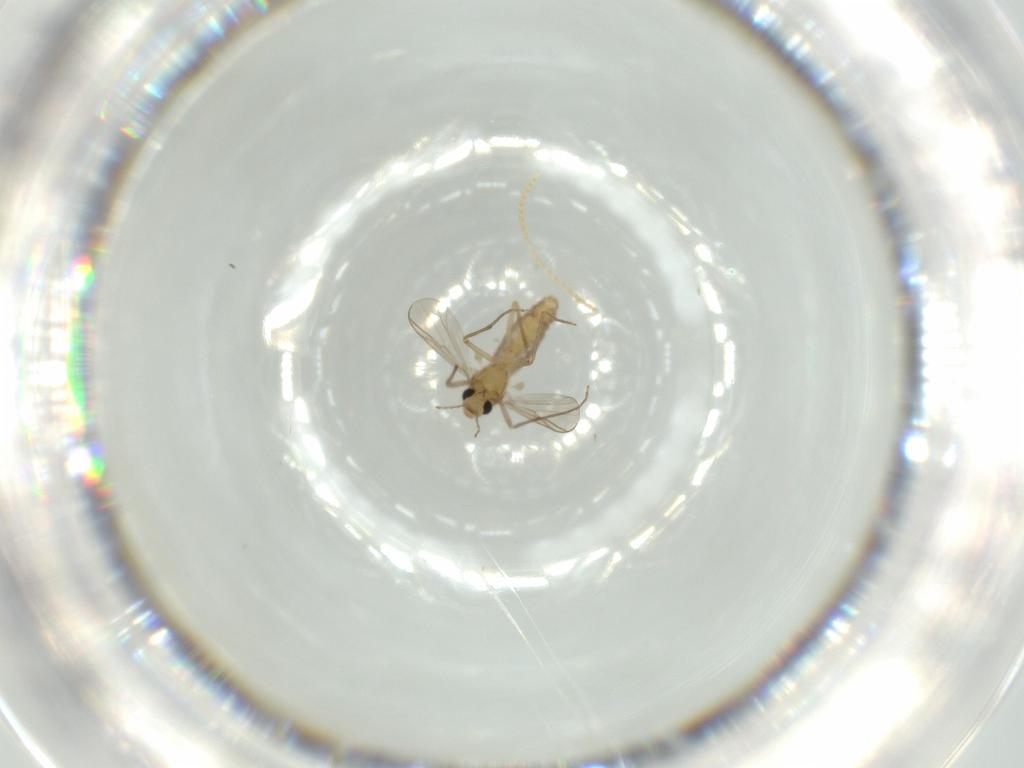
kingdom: Animalia
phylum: Arthropoda
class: Insecta
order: Diptera
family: Chironomidae
